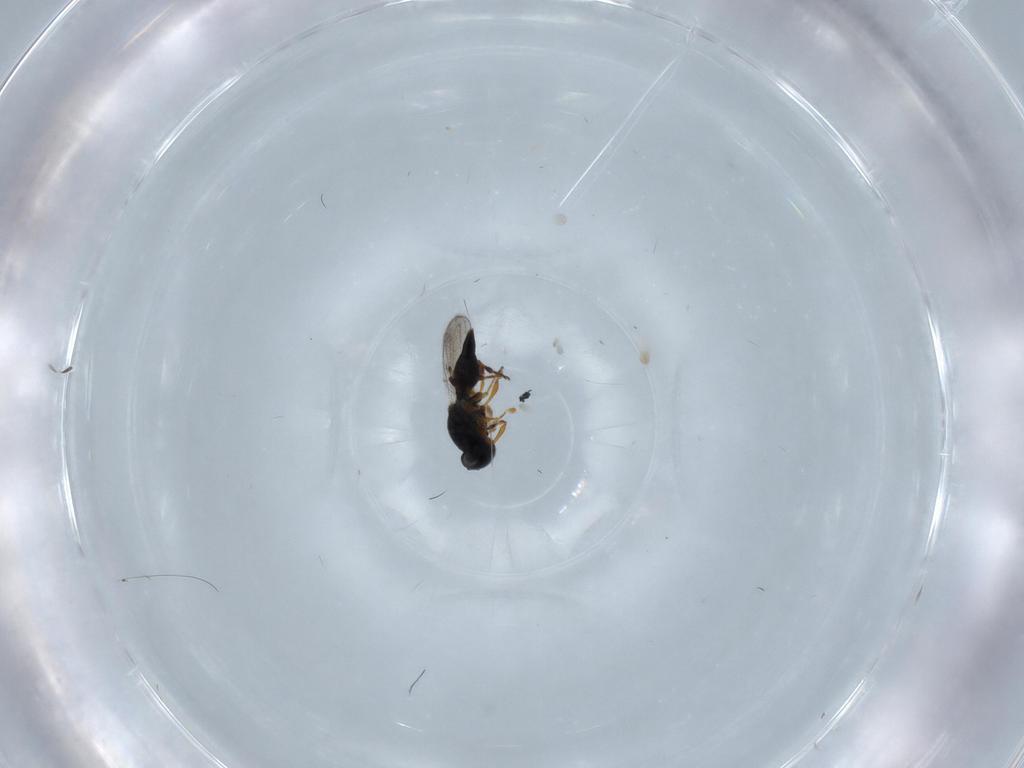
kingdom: Animalia
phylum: Arthropoda
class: Insecta
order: Hymenoptera
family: Platygastridae
